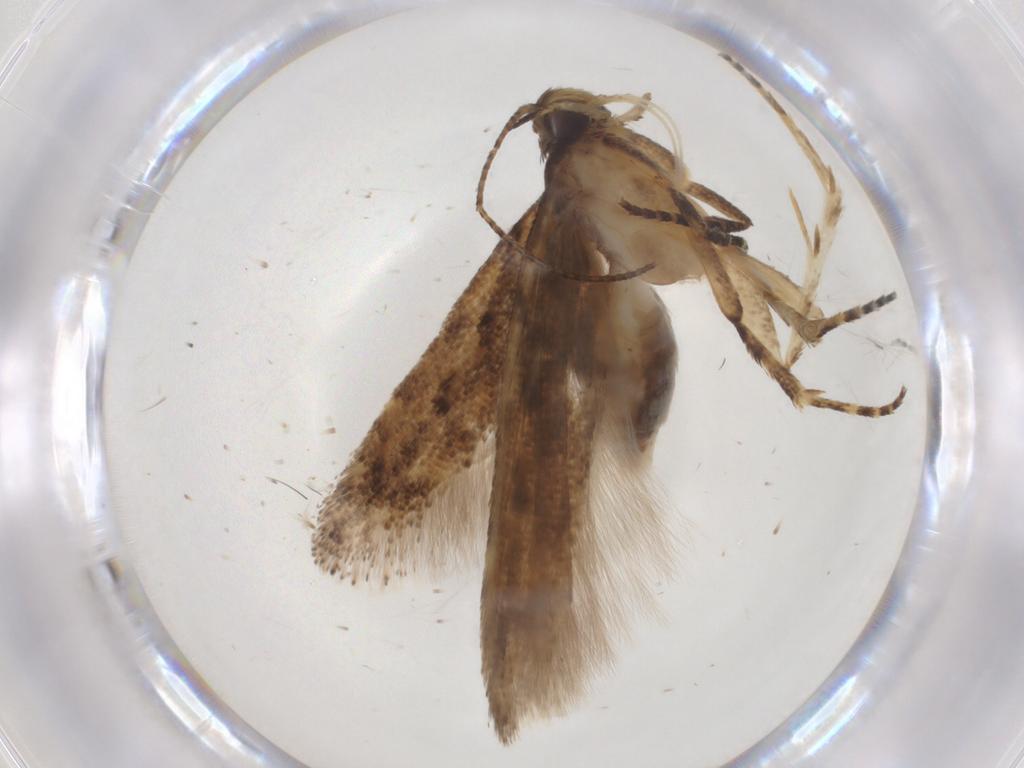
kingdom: Animalia
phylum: Arthropoda
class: Insecta
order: Lepidoptera
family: Gelechiidae
